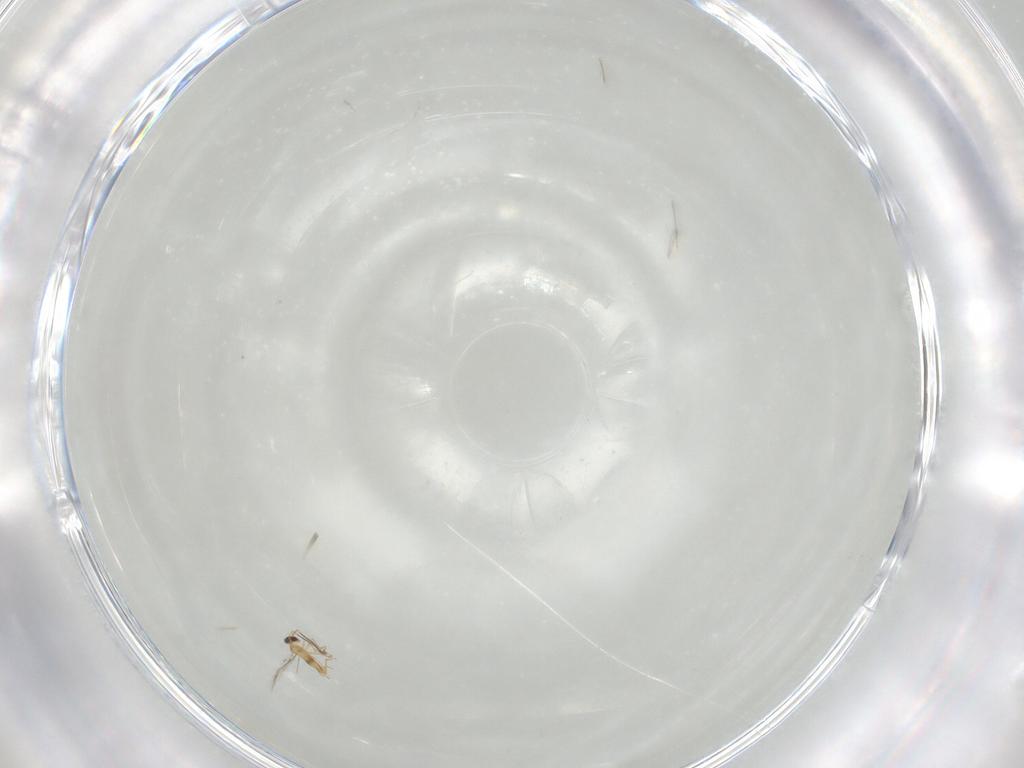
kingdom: Animalia
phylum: Arthropoda
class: Insecta
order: Hymenoptera
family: Mymaridae
